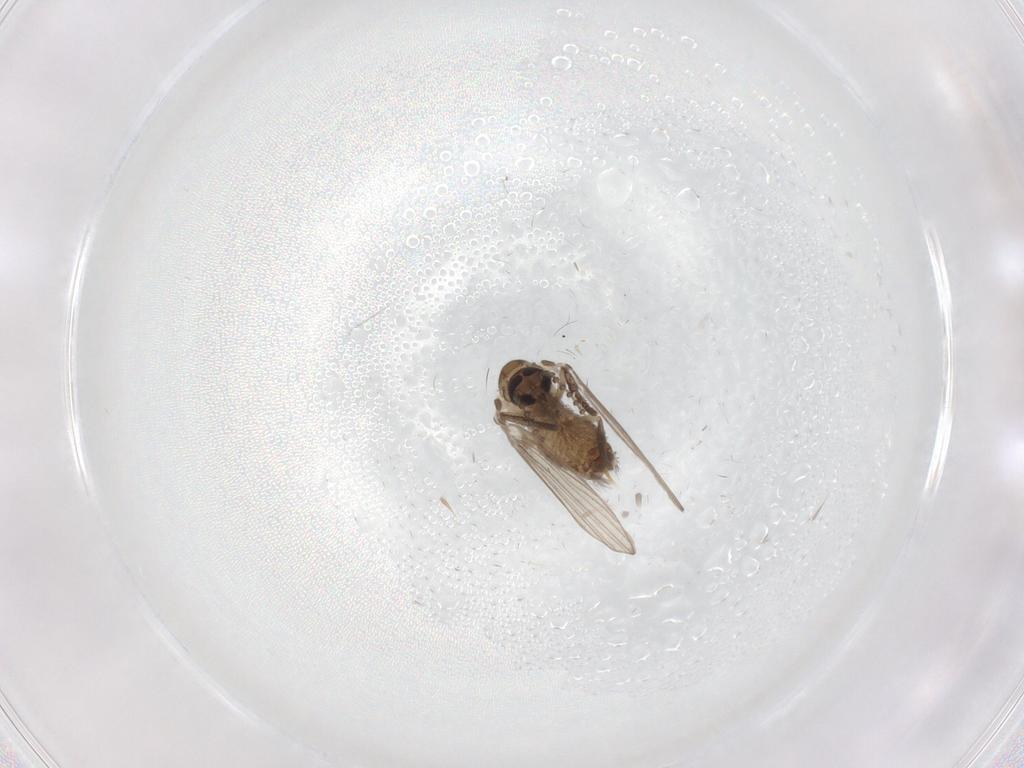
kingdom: Animalia
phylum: Arthropoda
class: Insecta
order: Diptera
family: Psychodidae
